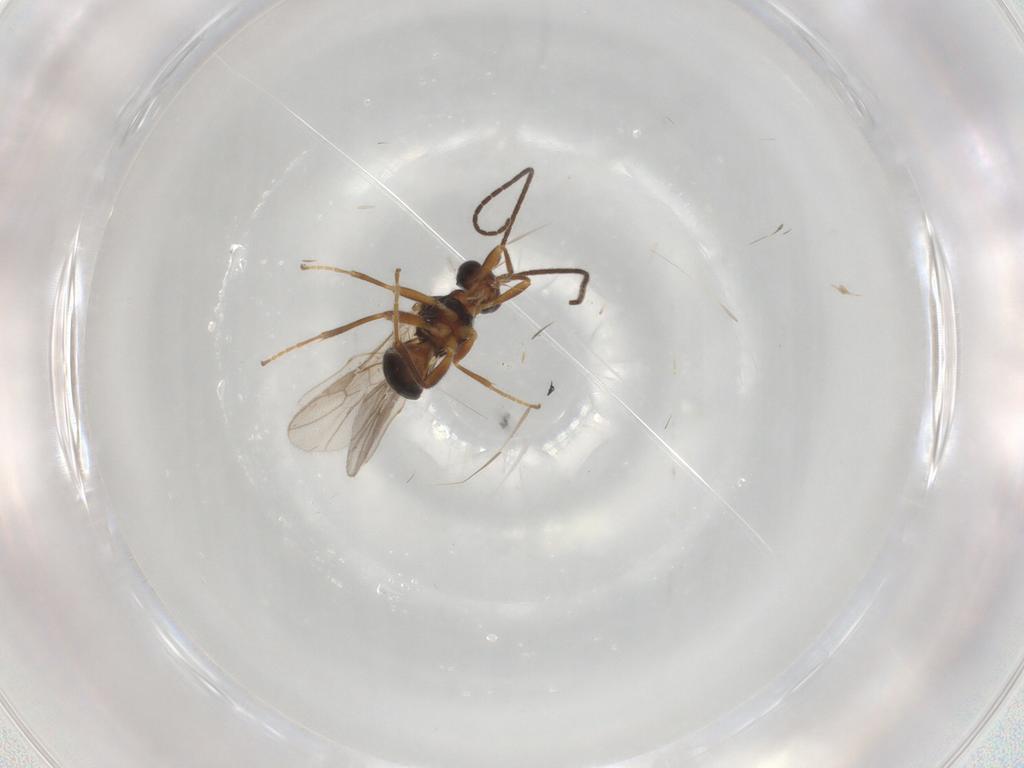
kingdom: Animalia
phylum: Arthropoda
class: Insecta
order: Hymenoptera
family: Braconidae
